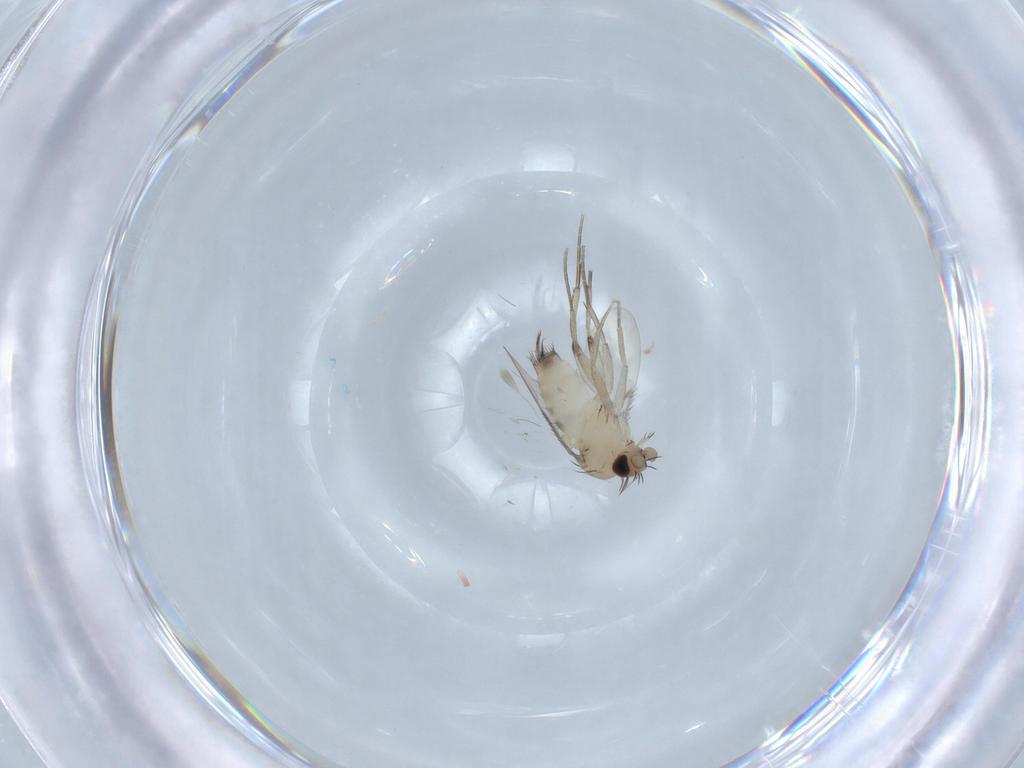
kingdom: Animalia
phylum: Arthropoda
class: Insecta
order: Diptera
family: Phoridae
